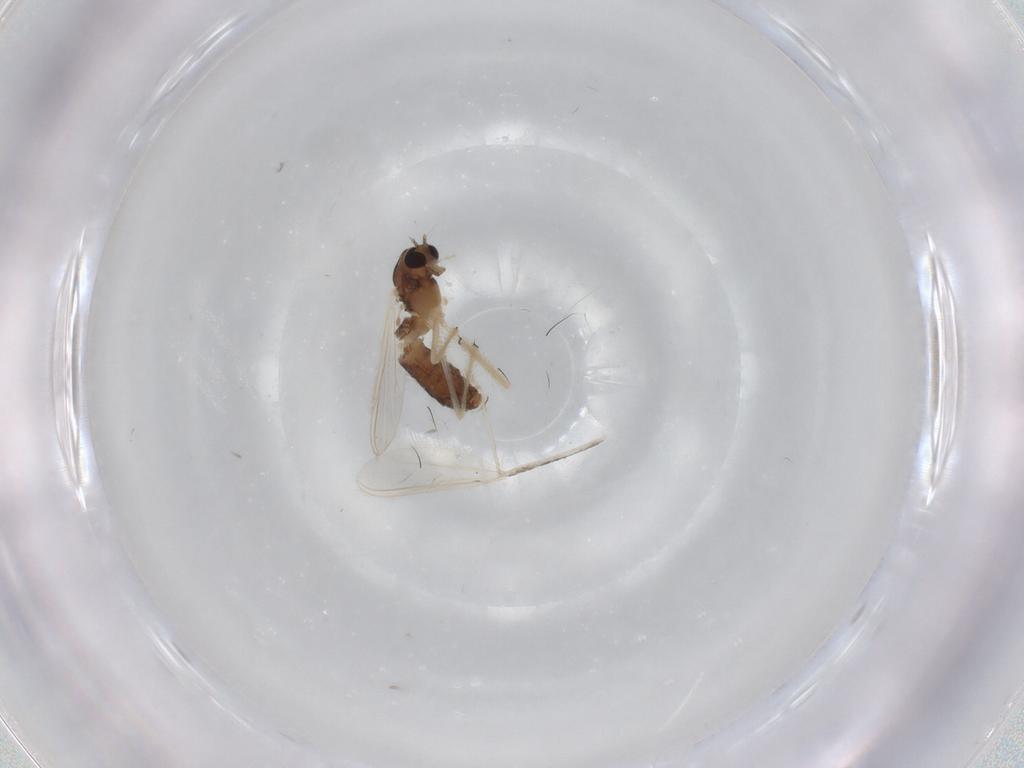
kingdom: Animalia
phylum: Arthropoda
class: Insecta
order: Diptera
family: Chironomidae
